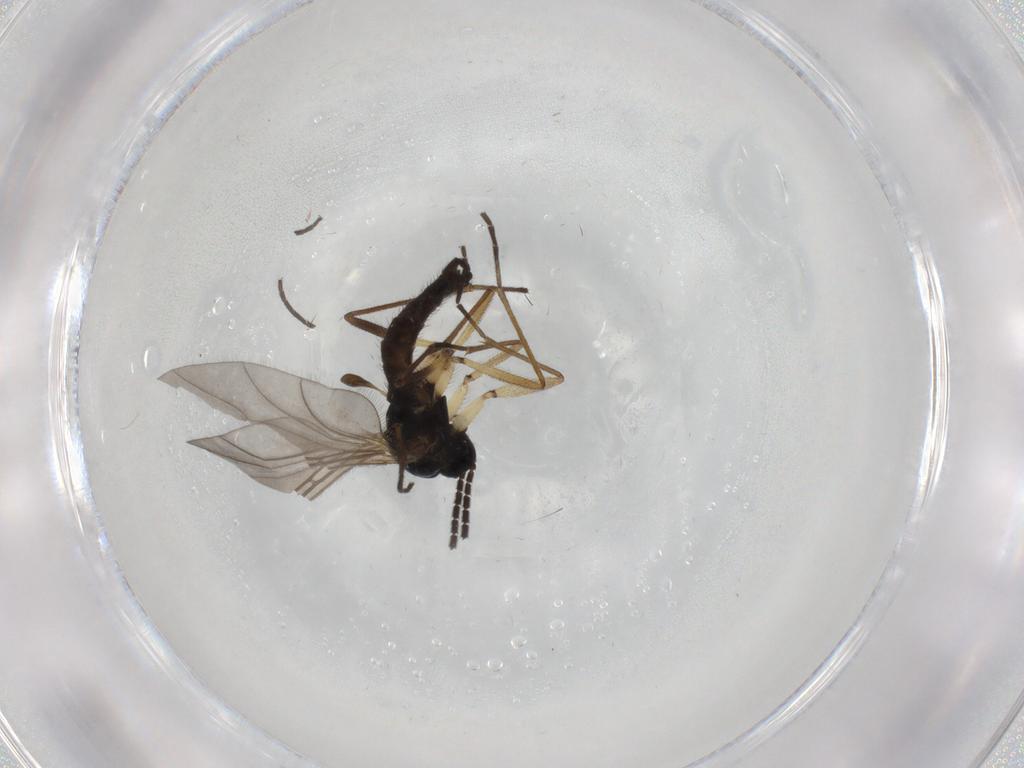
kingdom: Animalia
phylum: Arthropoda
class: Insecta
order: Diptera
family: Sciaridae
